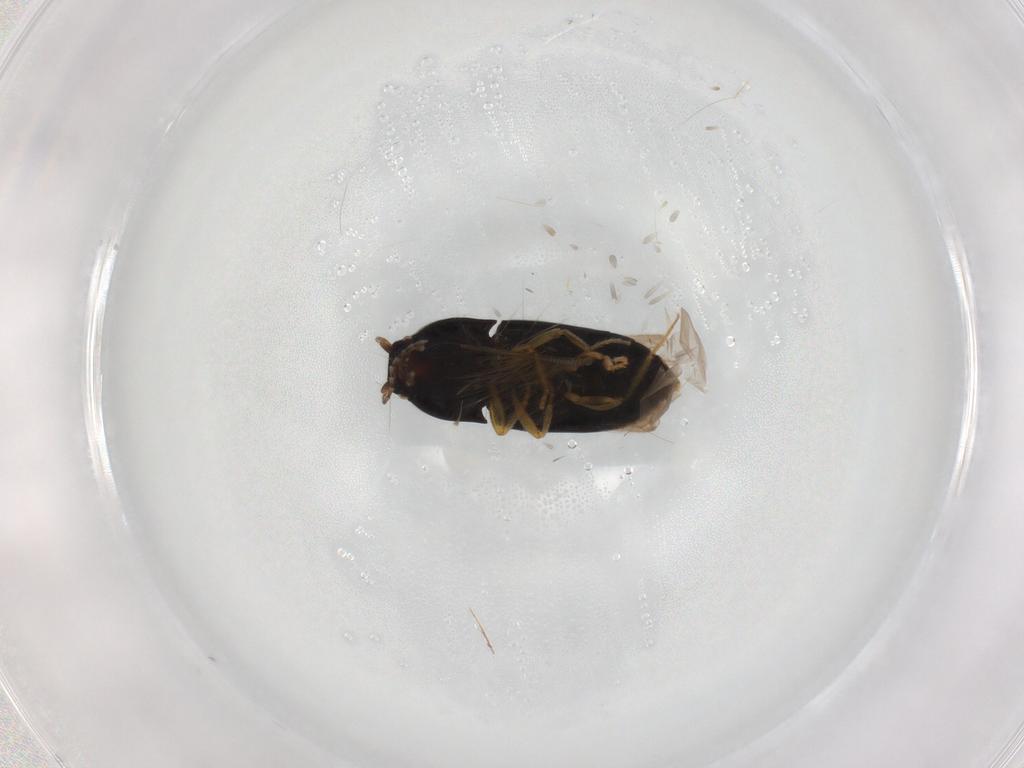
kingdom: Animalia
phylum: Arthropoda
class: Insecta
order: Coleoptera
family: Elateridae
